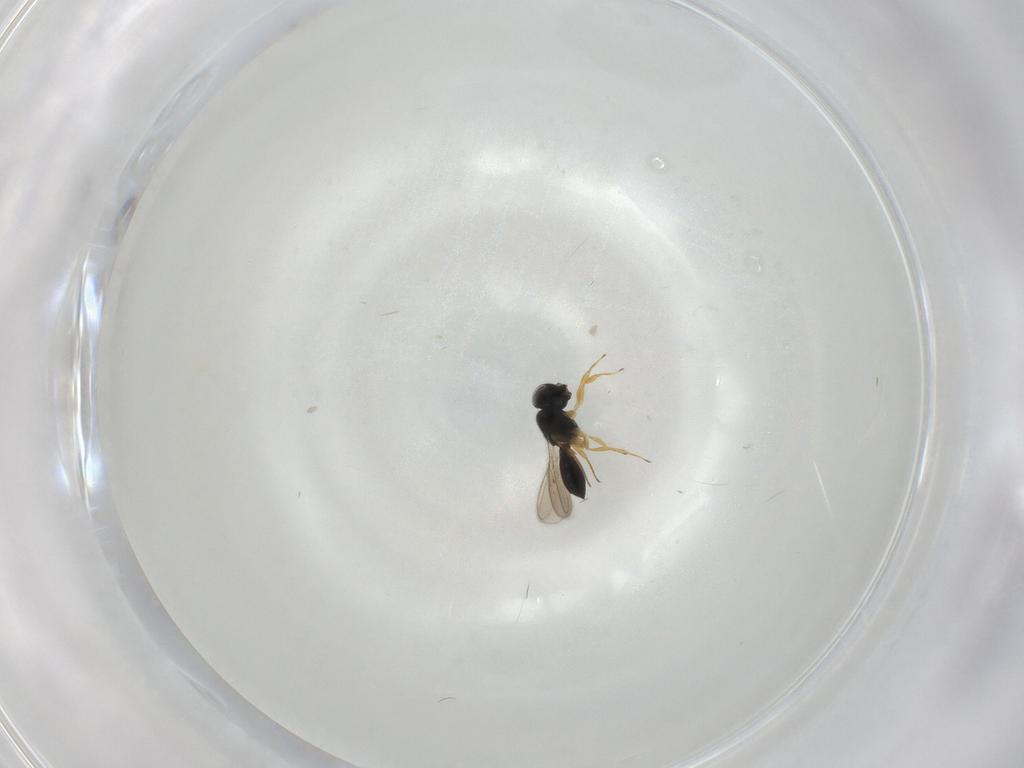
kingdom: Animalia
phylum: Arthropoda
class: Insecta
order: Hymenoptera
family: Scelionidae
